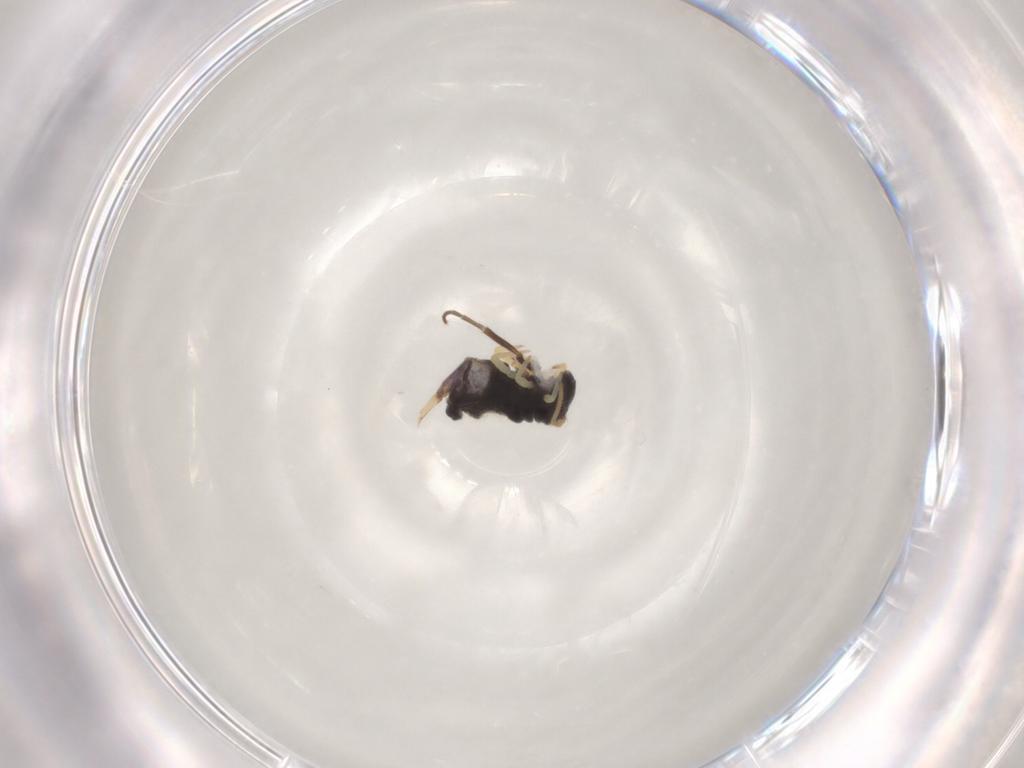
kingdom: Animalia
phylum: Arthropoda
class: Insecta
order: Diptera
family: Phoridae
